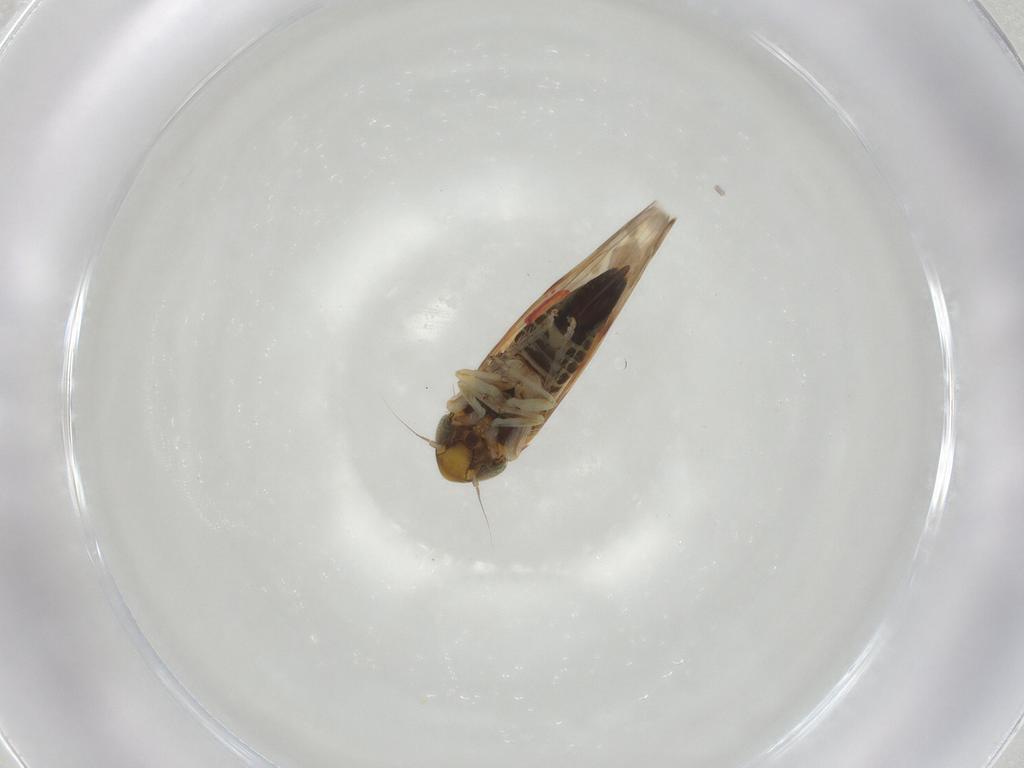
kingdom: Animalia
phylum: Arthropoda
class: Insecta
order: Hemiptera
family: Cicadellidae
